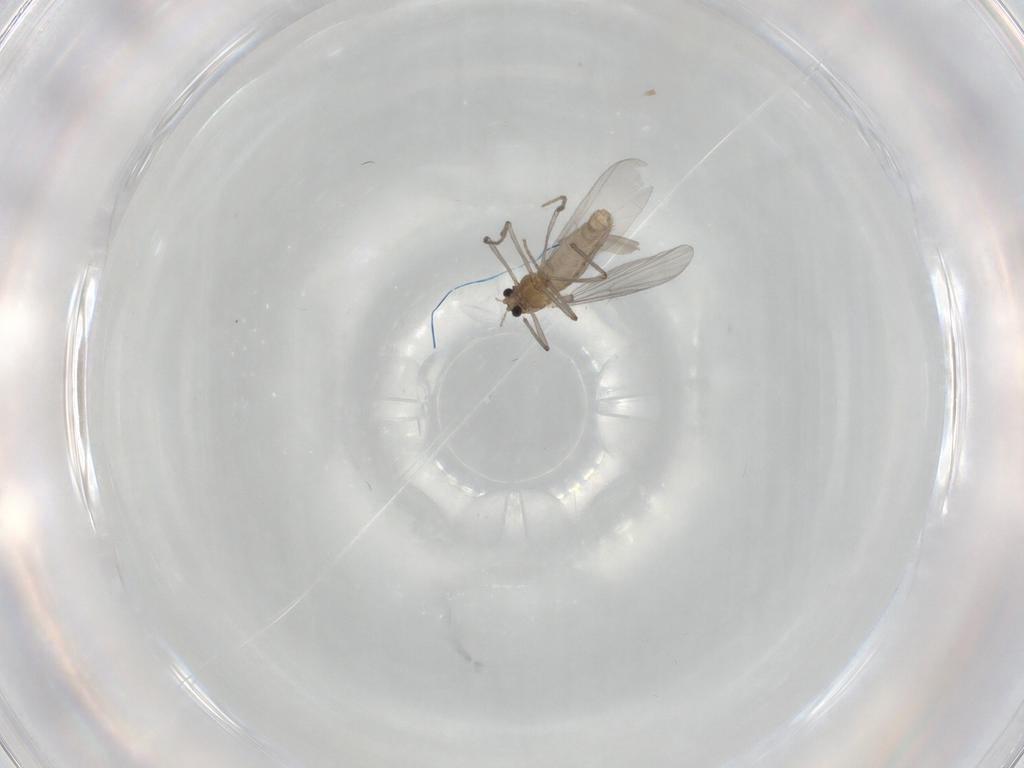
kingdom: Animalia
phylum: Arthropoda
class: Insecta
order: Diptera
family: Chironomidae
